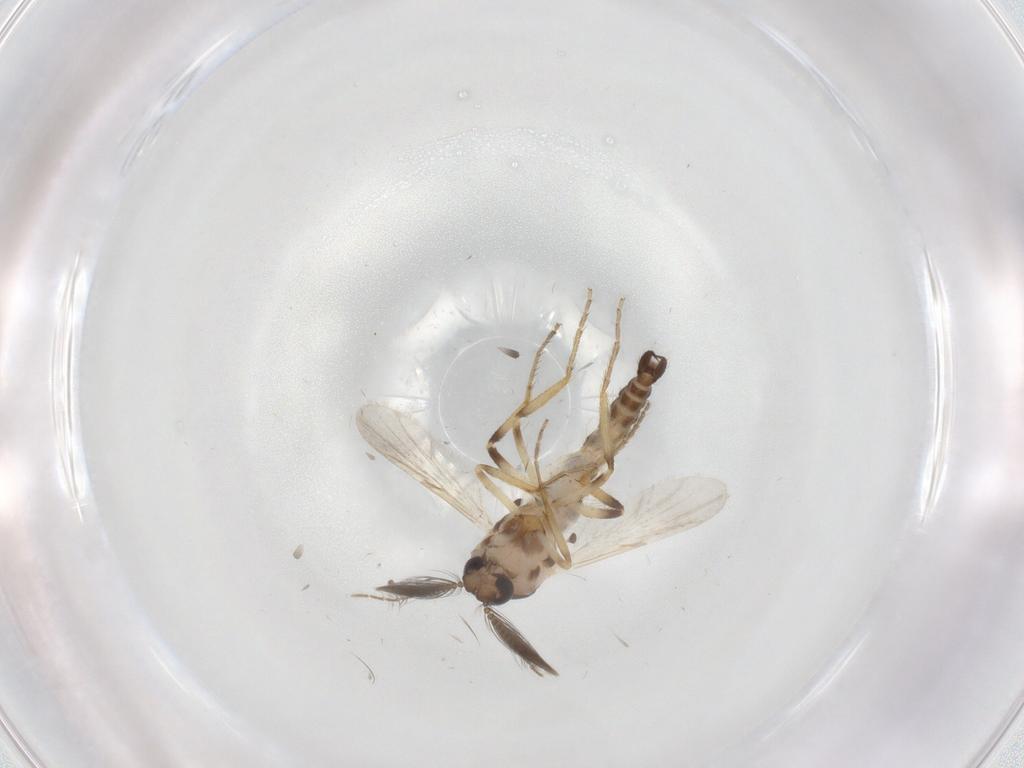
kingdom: Animalia
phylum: Arthropoda
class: Insecta
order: Diptera
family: Ceratopogonidae
